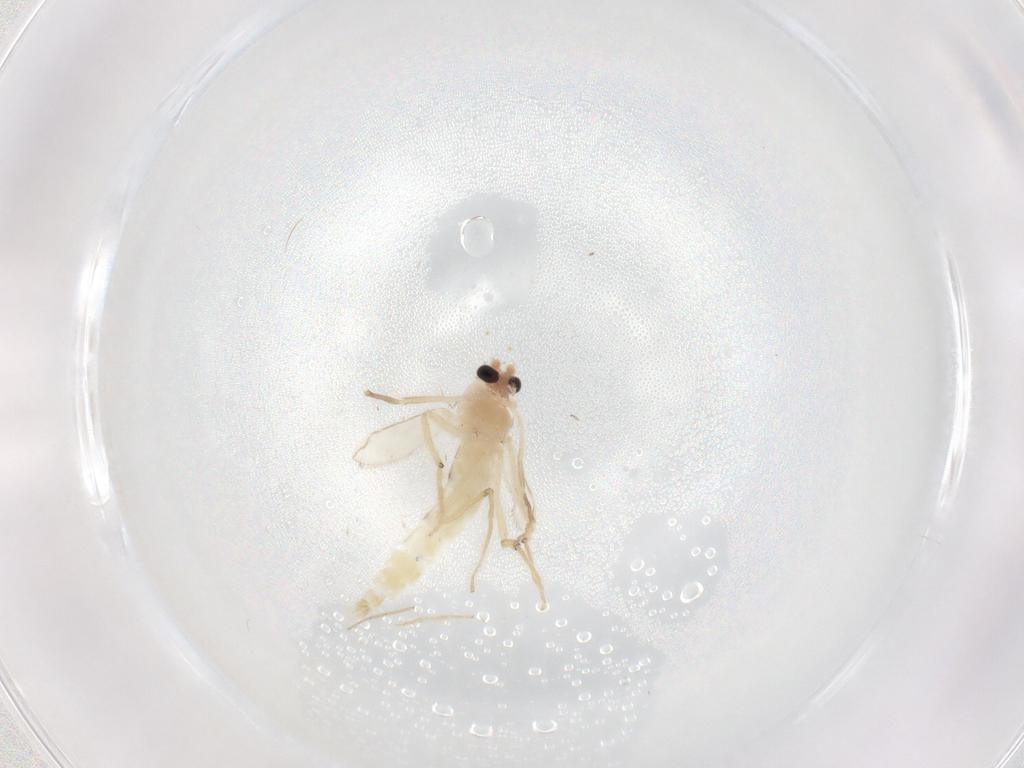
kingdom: Animalia
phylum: Arthropoda
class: Insecta
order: Diptera
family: Chironomidae
